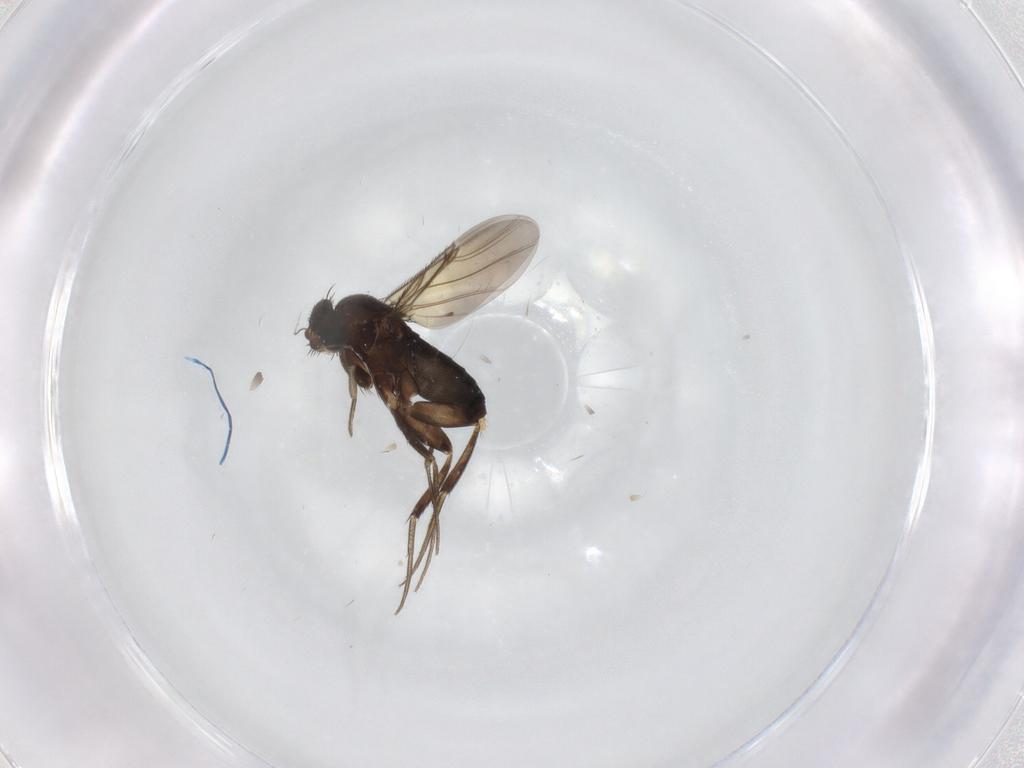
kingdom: Animalia
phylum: Arthropoda
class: Insecta
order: Diptera
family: Phoridae
